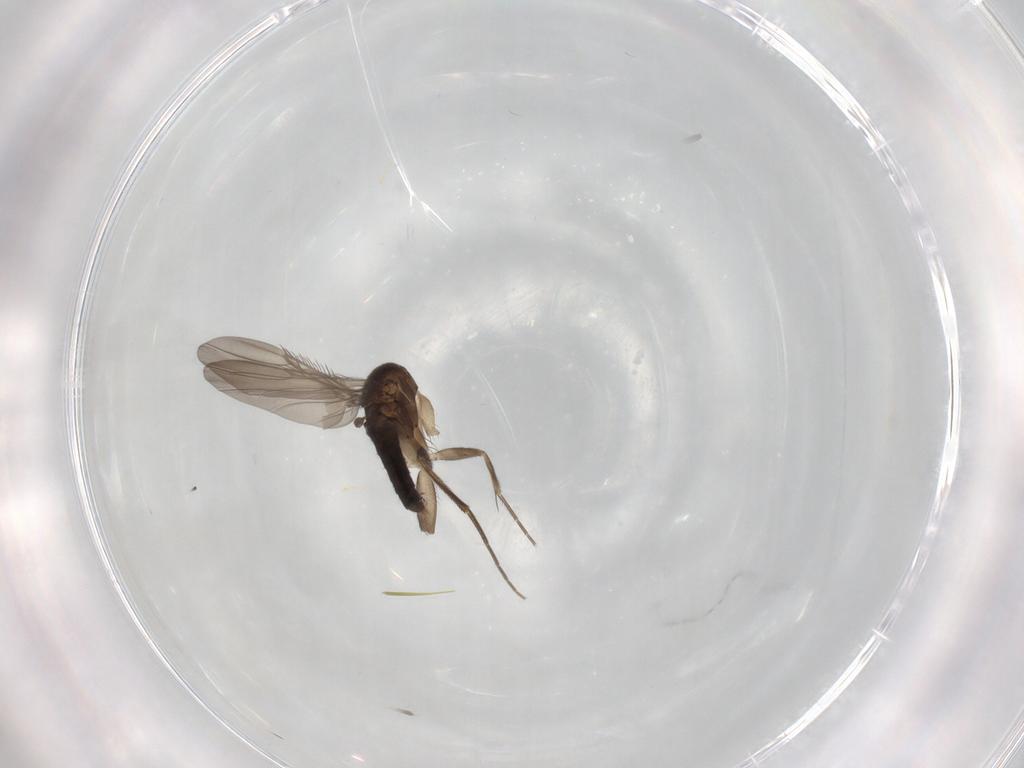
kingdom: Animalia
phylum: Arthropoda
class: Insecta
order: Diptera
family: Phoridae
